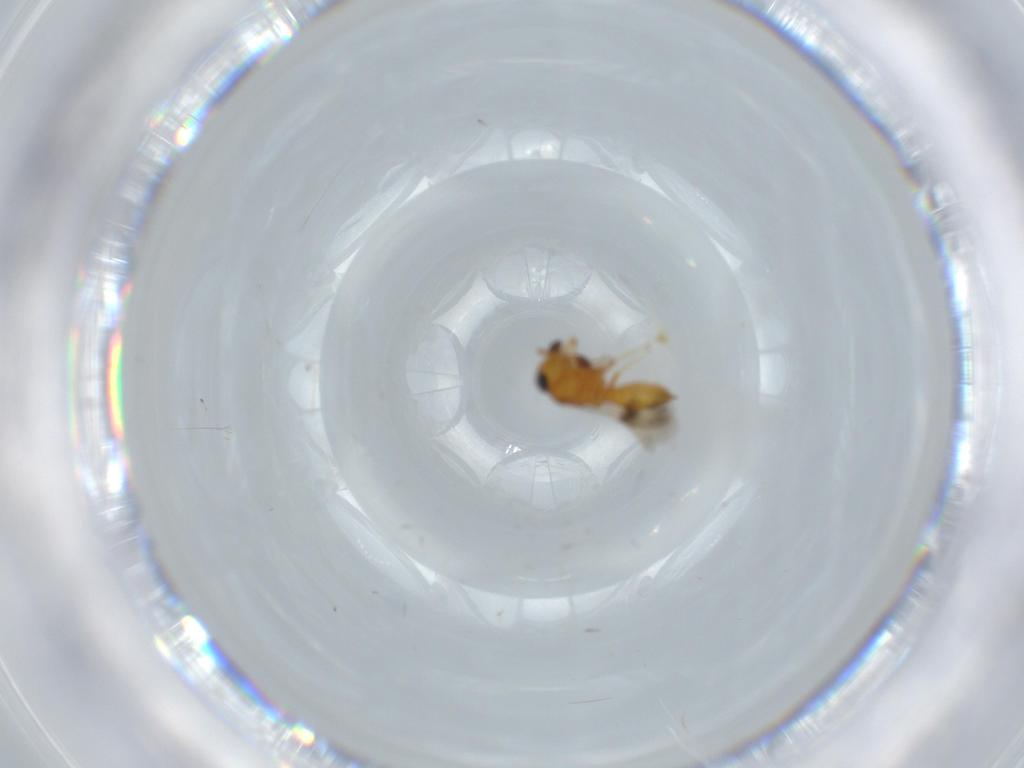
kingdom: Animalia
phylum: Arthropoda
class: Insecta
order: Hymenoptera
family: Scelionidae
